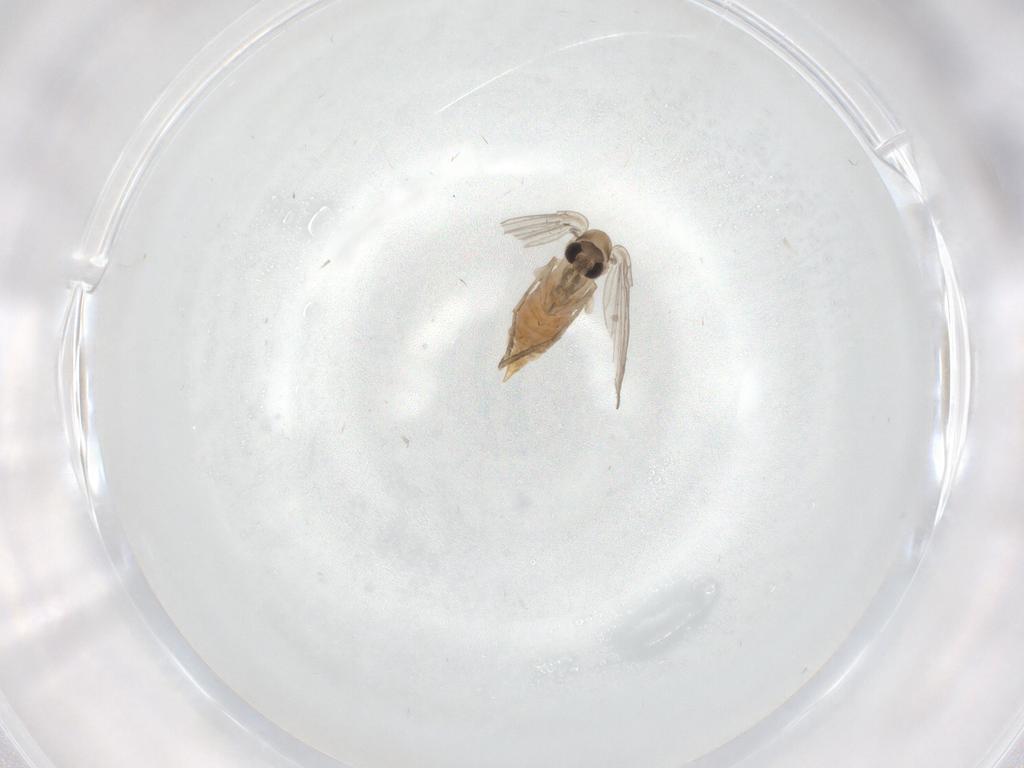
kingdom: Animalia
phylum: Arthropoda
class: Insecta
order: Diptera
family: Psychodidae
